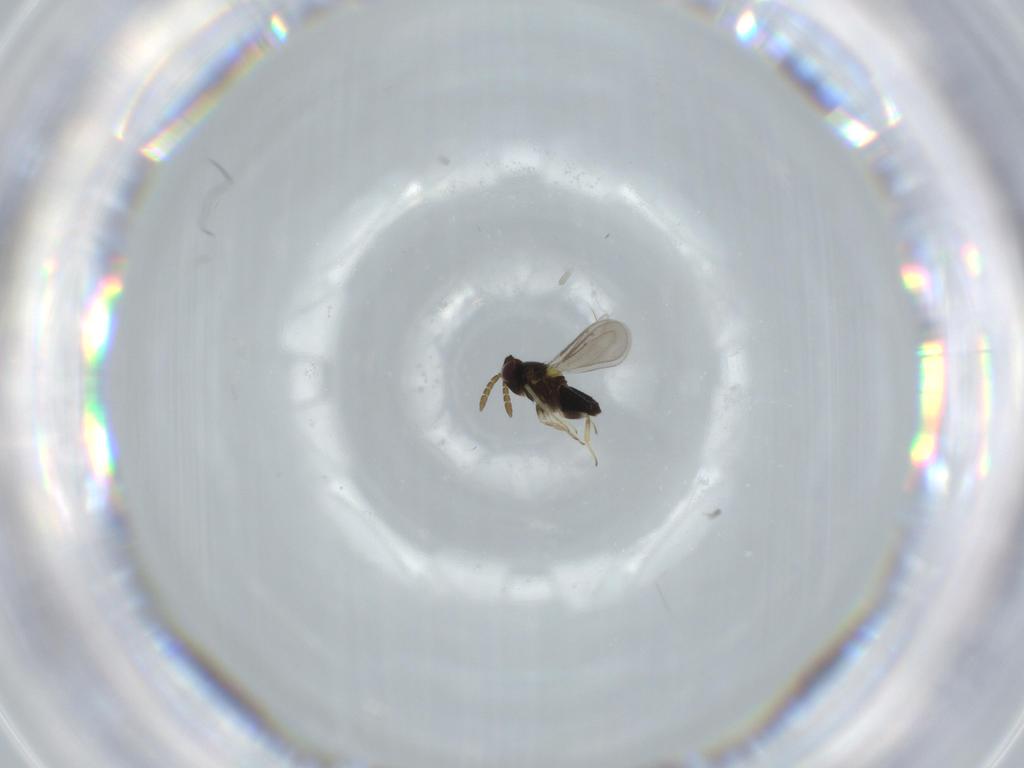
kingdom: Animalia
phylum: Arthropoda
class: Insecta
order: Hymenoptera
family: Aphelinidae
